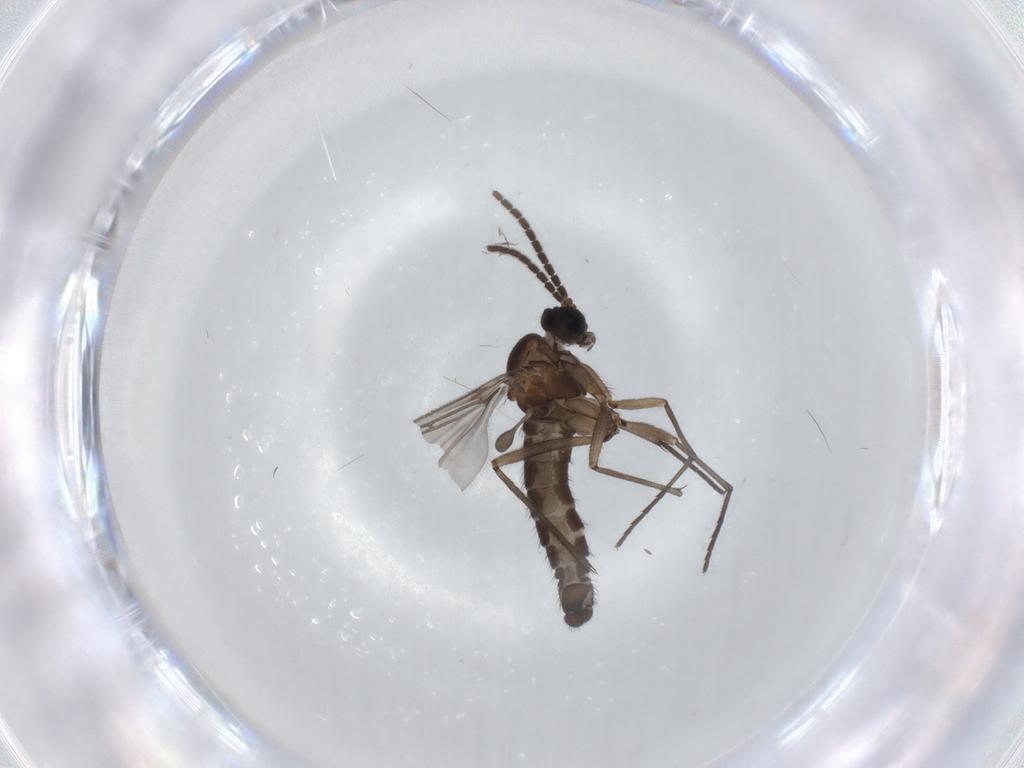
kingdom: Animalia
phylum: Arthropoda
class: Insecta
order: Diptera
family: Sciaridae
